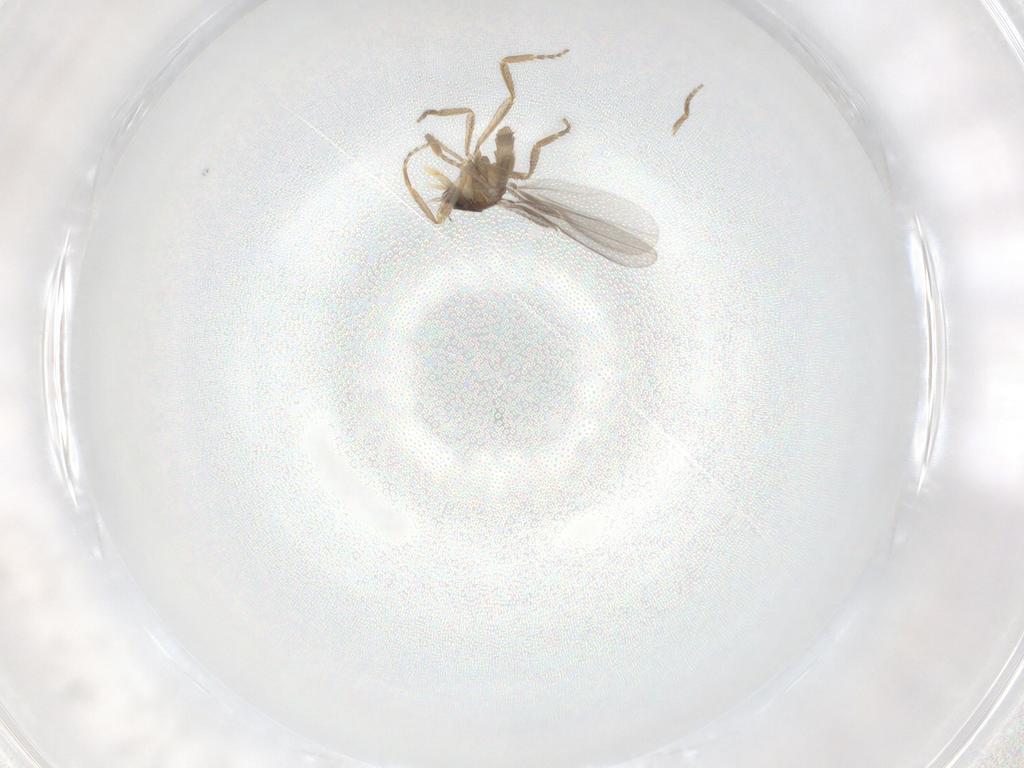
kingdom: Animalia
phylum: Arthropoda
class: Insecta
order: Diptera
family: Phoridae
